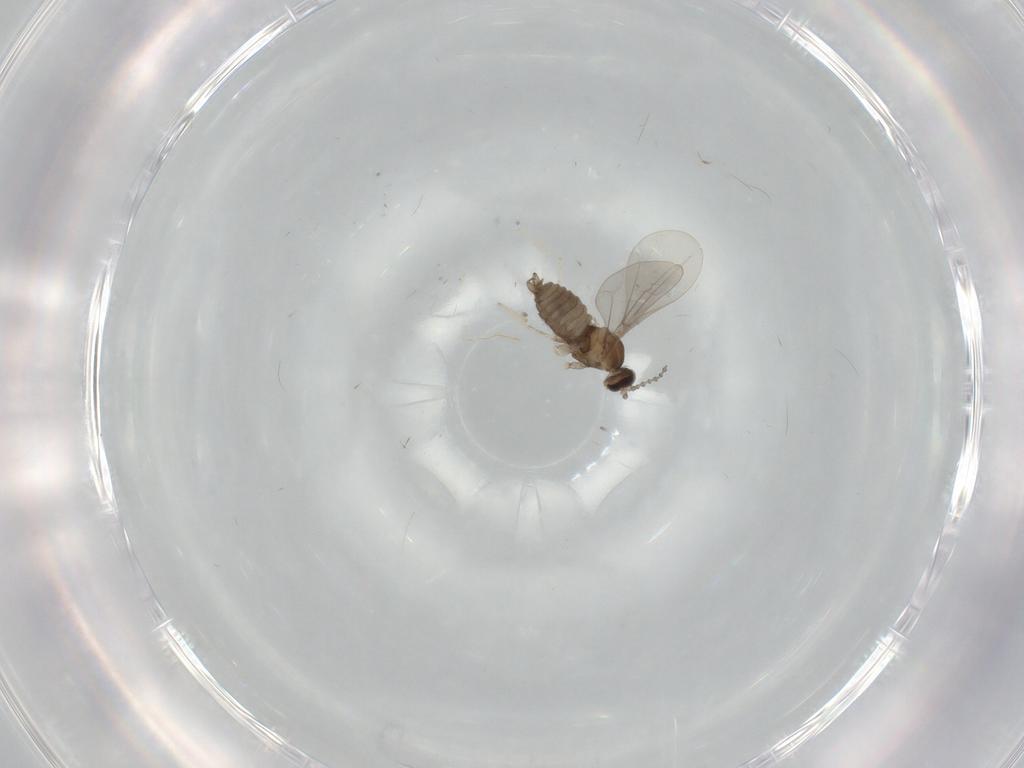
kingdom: Animalia
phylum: Arthropoda
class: Insecta
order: Diptera
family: Cecidomyiidae
